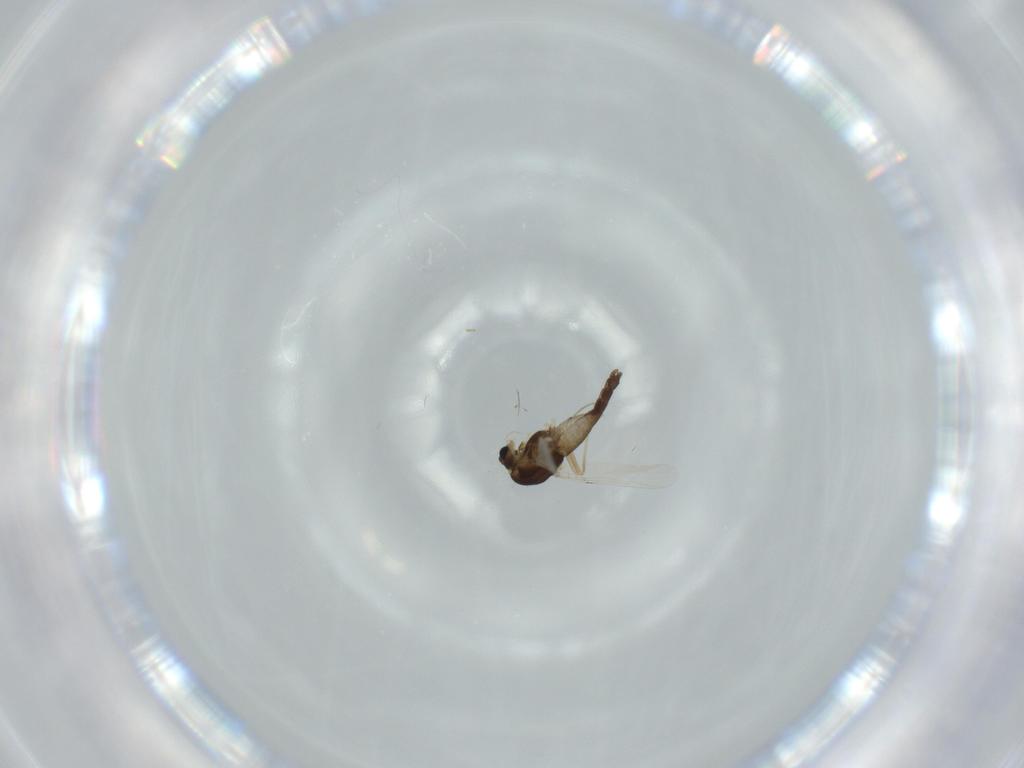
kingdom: Animalia
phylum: Arthropoda
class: Insecta
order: Diptera
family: Chironomidae
